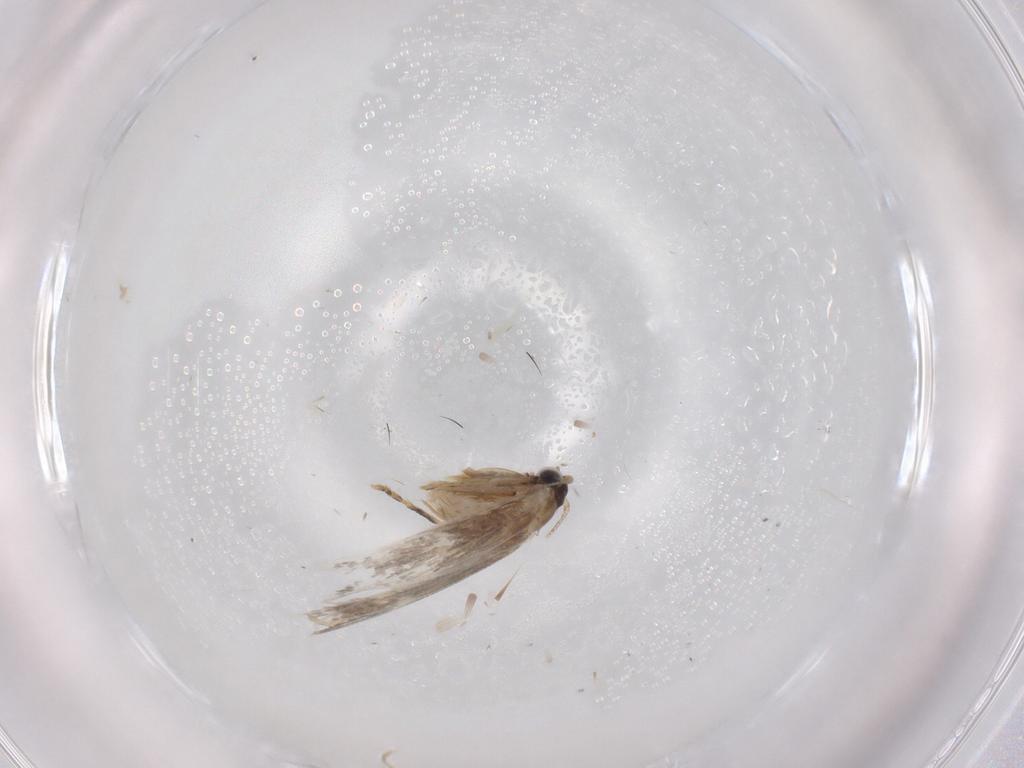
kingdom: Animalia
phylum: Arthropoda
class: Insecta
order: Lepidoptera
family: Tineidae
